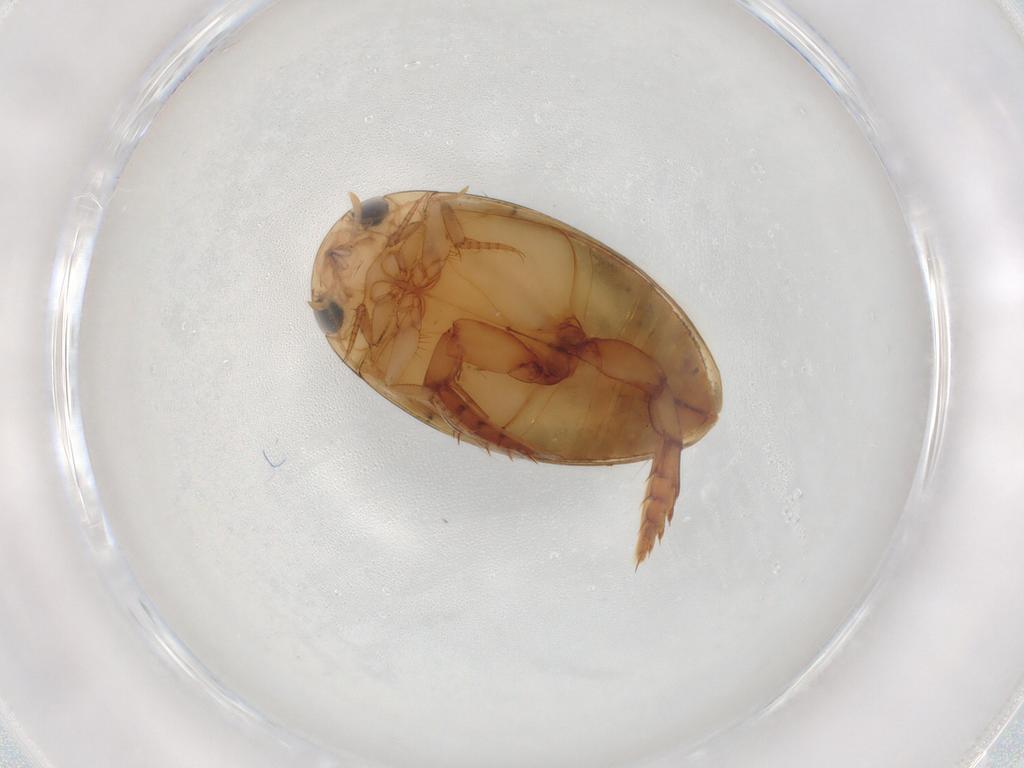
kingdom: Animalia
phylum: Arthropoda
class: Insecta
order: Coleoptera
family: Dytiscidae
